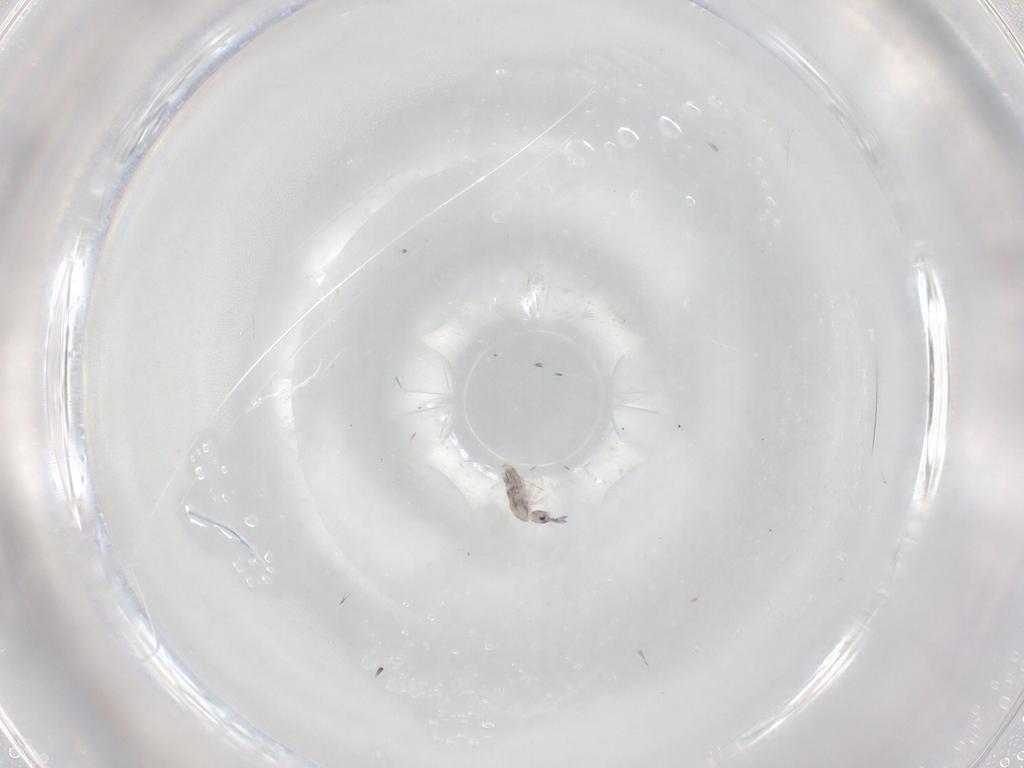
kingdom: Animalia
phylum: Arthropoda
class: Collembola
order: Entomobryomorpha
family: Entomobryidae
